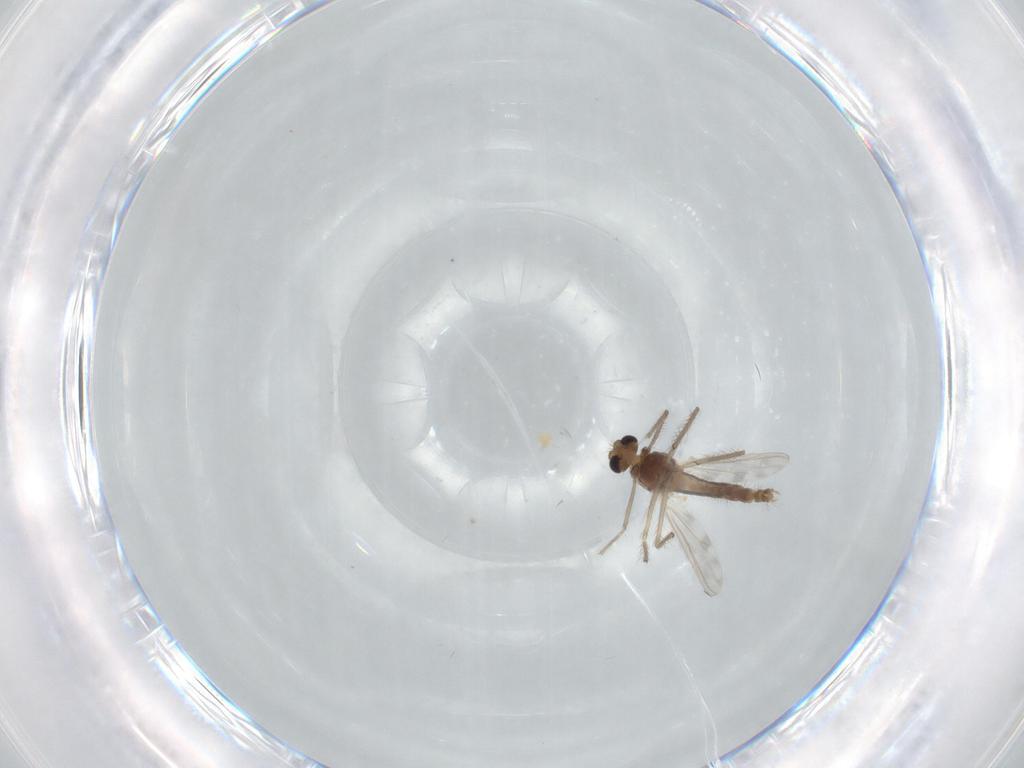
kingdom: Animalia
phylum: Arthropoda
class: Insecta
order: Diptera
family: Chironomidae
